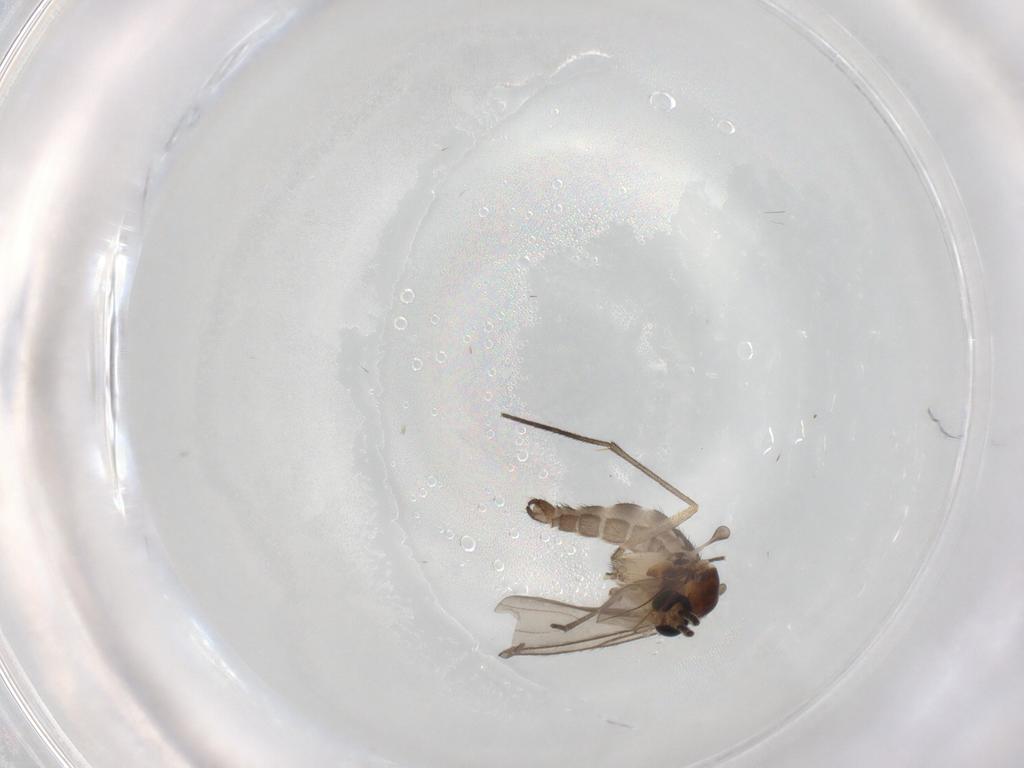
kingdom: Animalia
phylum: Arthropoda
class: Insecta
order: Diptera
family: Sciaridae
